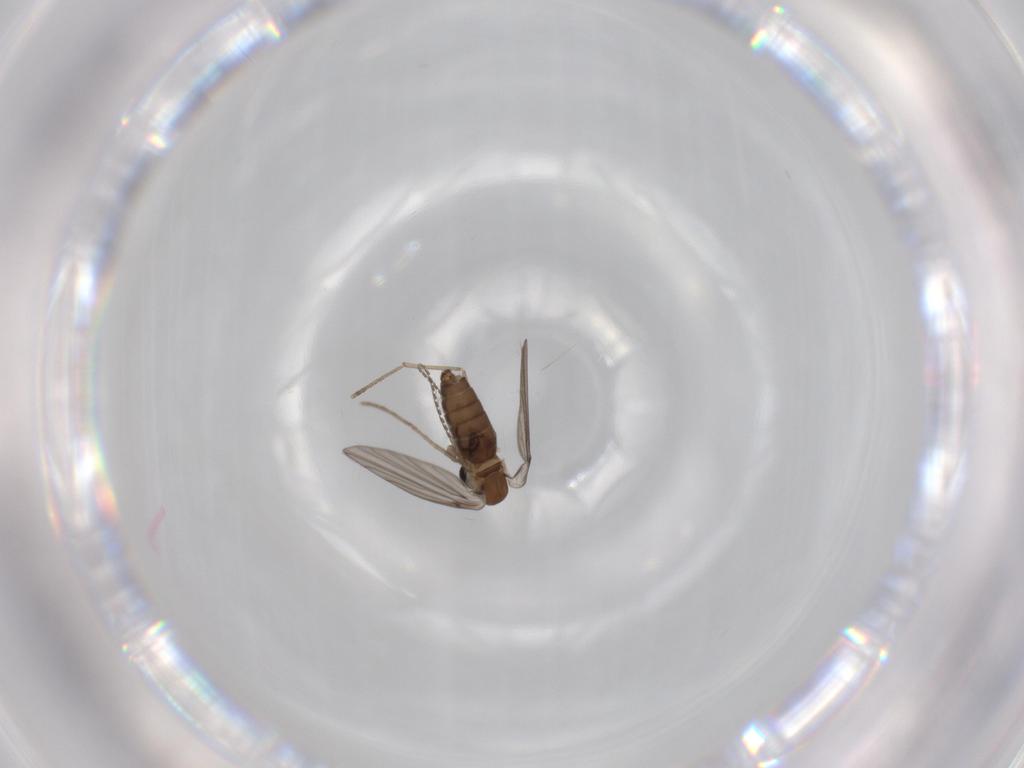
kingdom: Animalia
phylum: Arthropoda
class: Insecta
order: Diptera
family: Psychodidae
